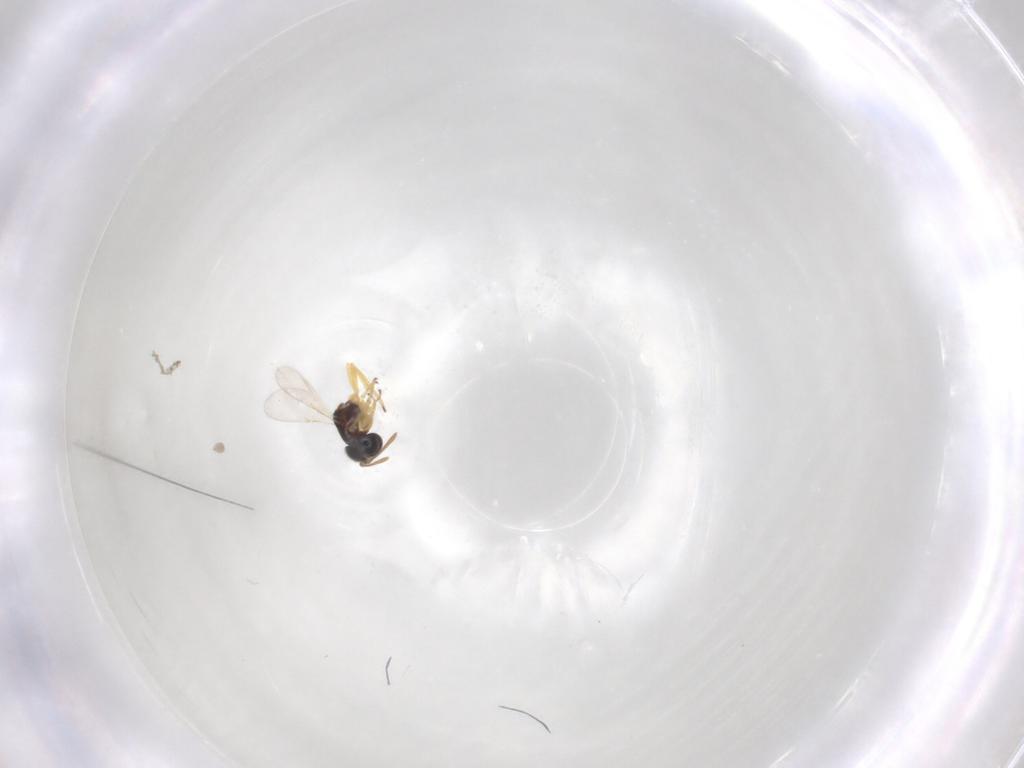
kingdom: Animalia
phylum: Arthropoda
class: Insecta
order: Hymenoptera
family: Encyrtidae
